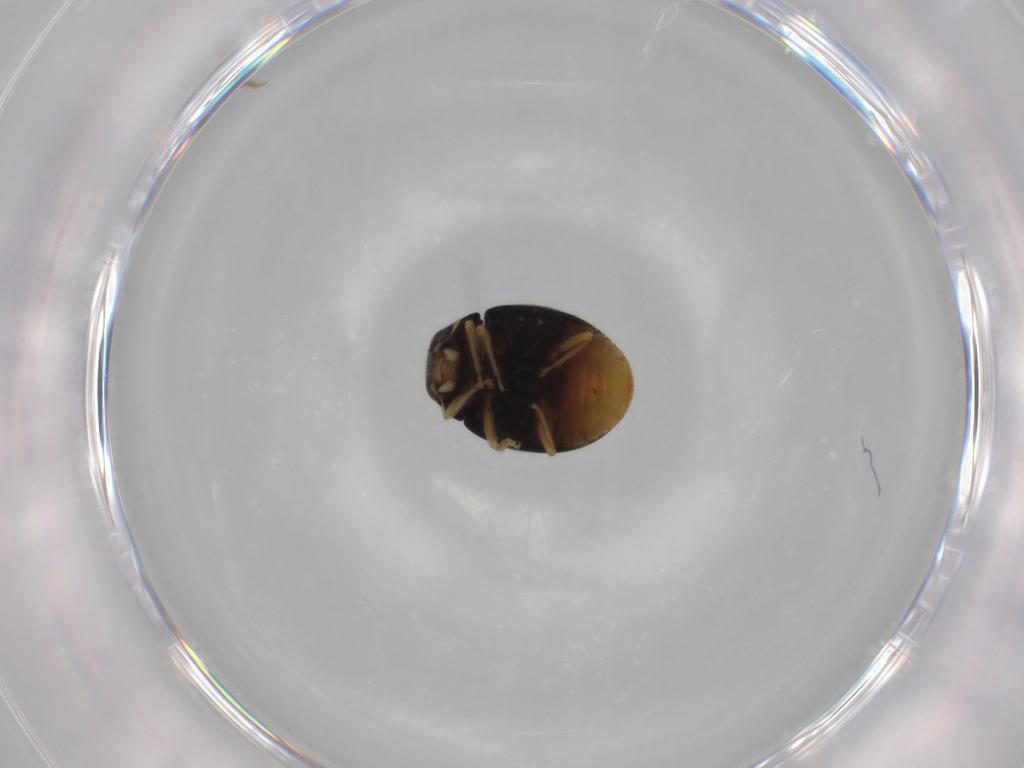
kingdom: Animalia
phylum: Arthropoda
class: Insecta
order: Coleoptera
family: Coccinellidae
